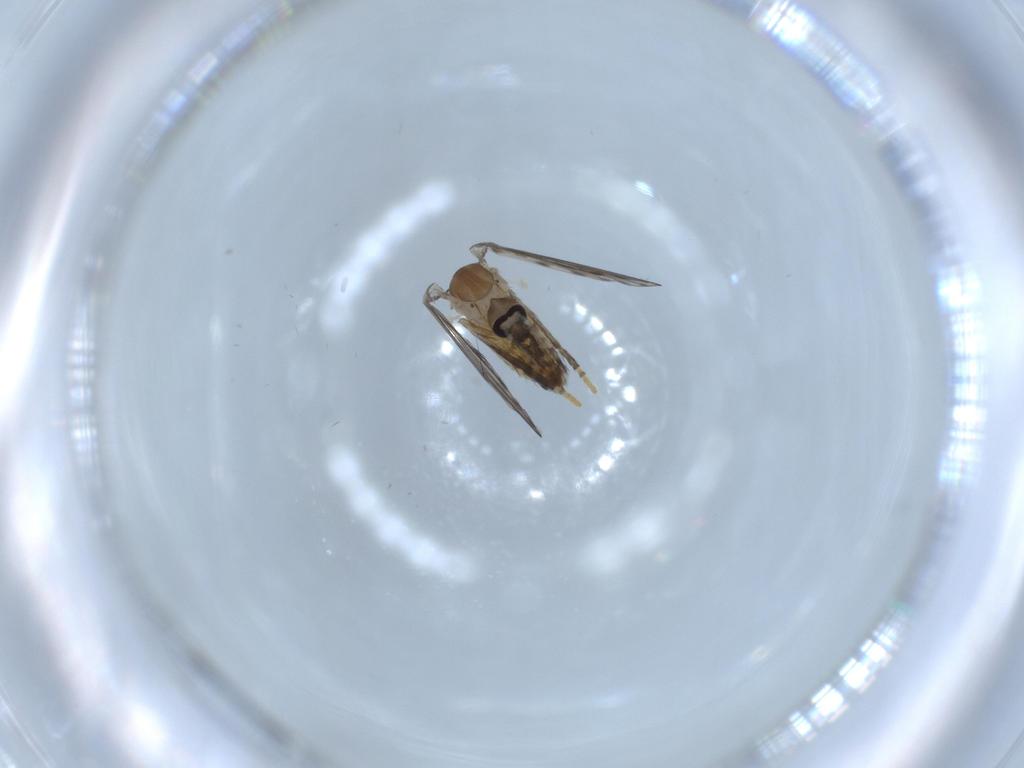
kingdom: Animalia
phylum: Arthropoda
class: Insecta
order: Diptera
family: Psychodidae
